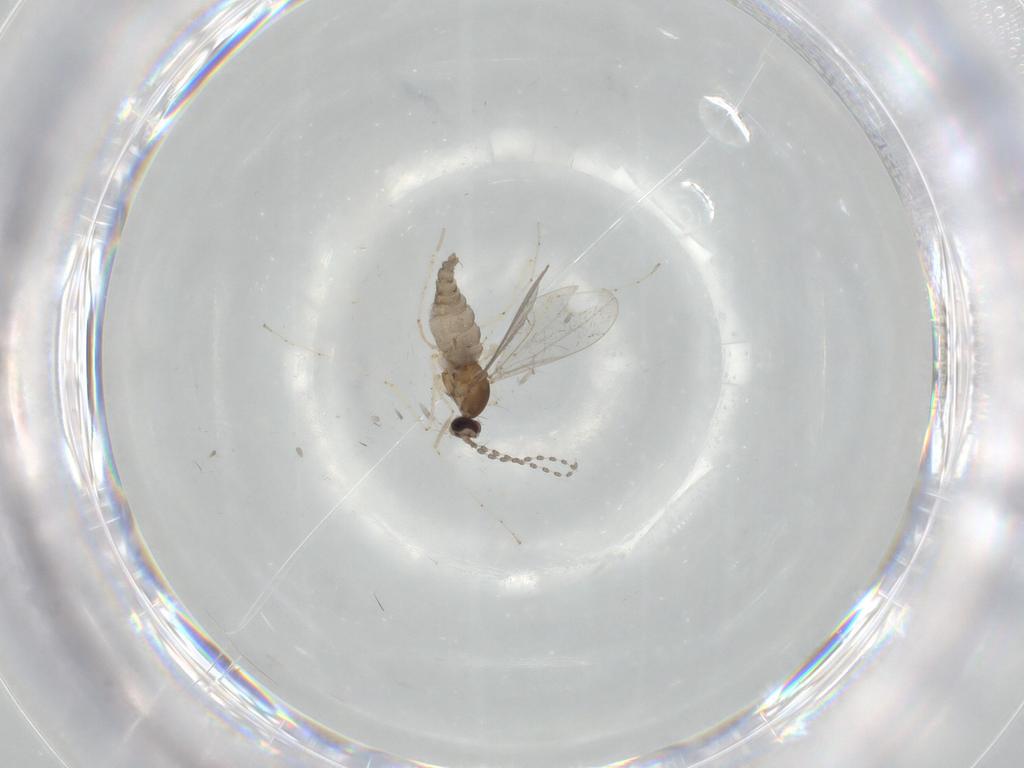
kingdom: Animalia
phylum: Arthropoda
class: Insecta
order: Diptera
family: Cecidomyiidae
